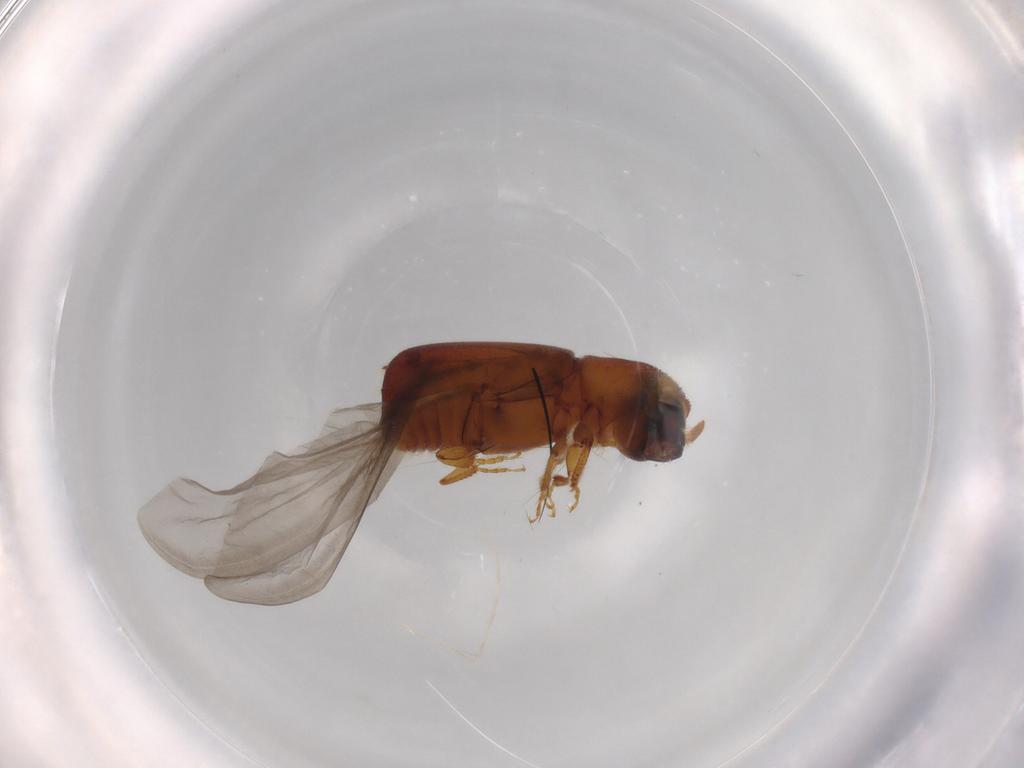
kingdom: Animalia
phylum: Arthropoda
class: Insecta
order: Coleoptera
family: Curculionidae
